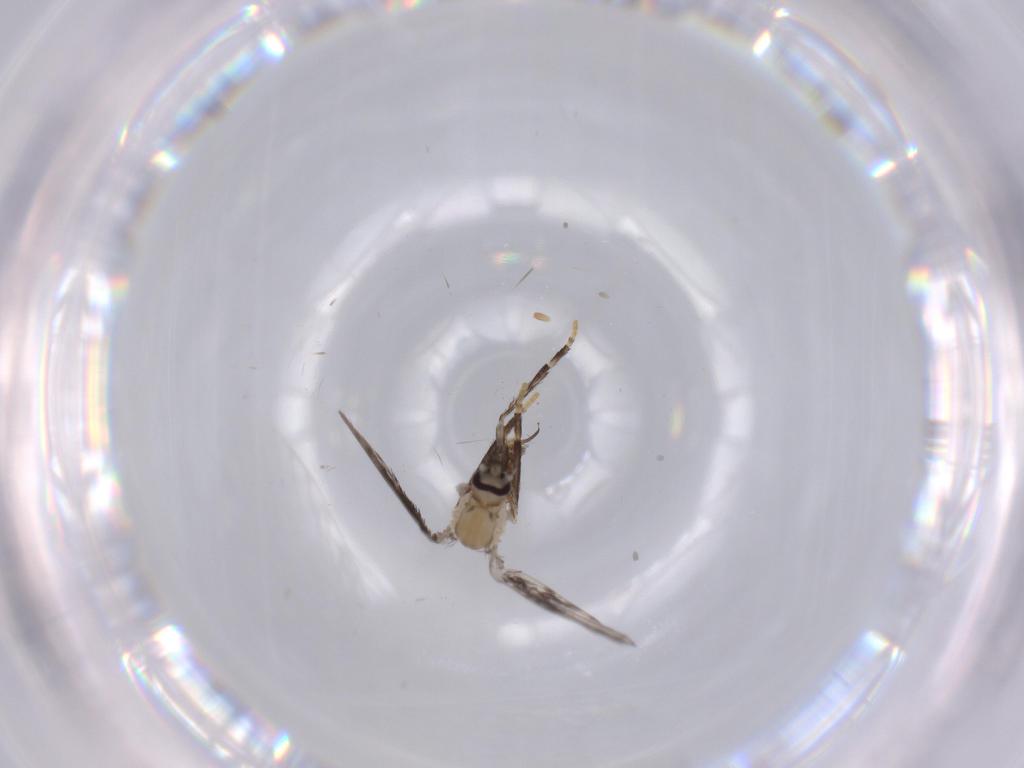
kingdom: Animalia
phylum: Arthropoda
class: Insecta
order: Diptera
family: Psychodidae
